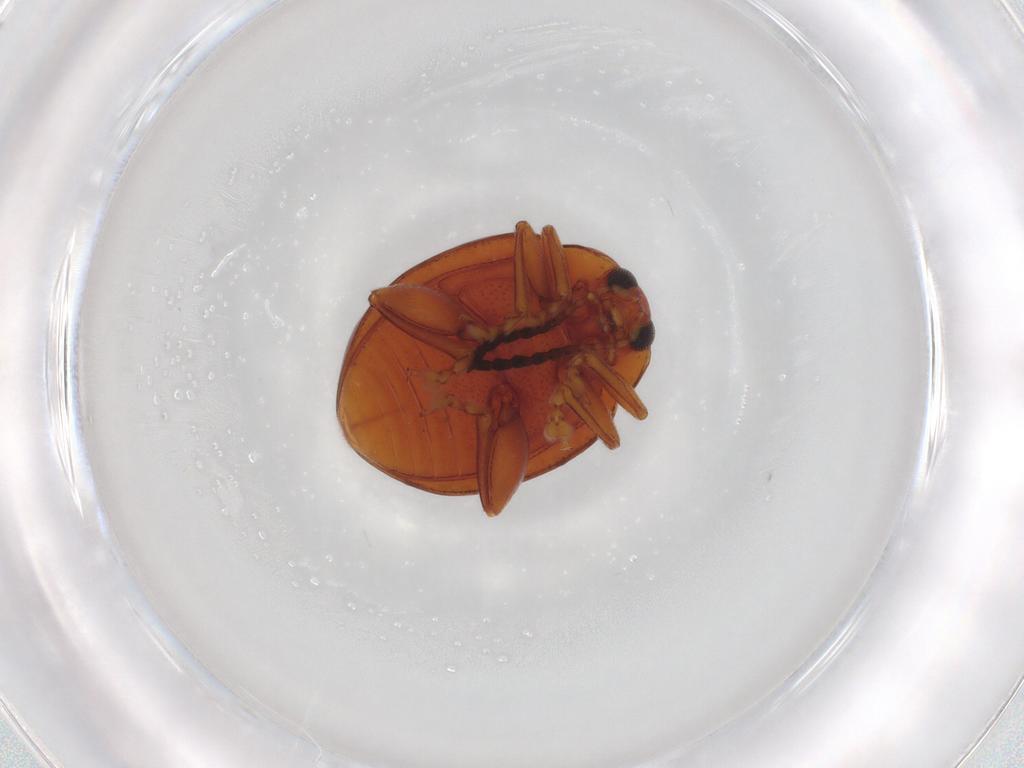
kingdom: Animalia
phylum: Arthropoda
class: Insecta
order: Coleoptera
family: Chrysomelidae
